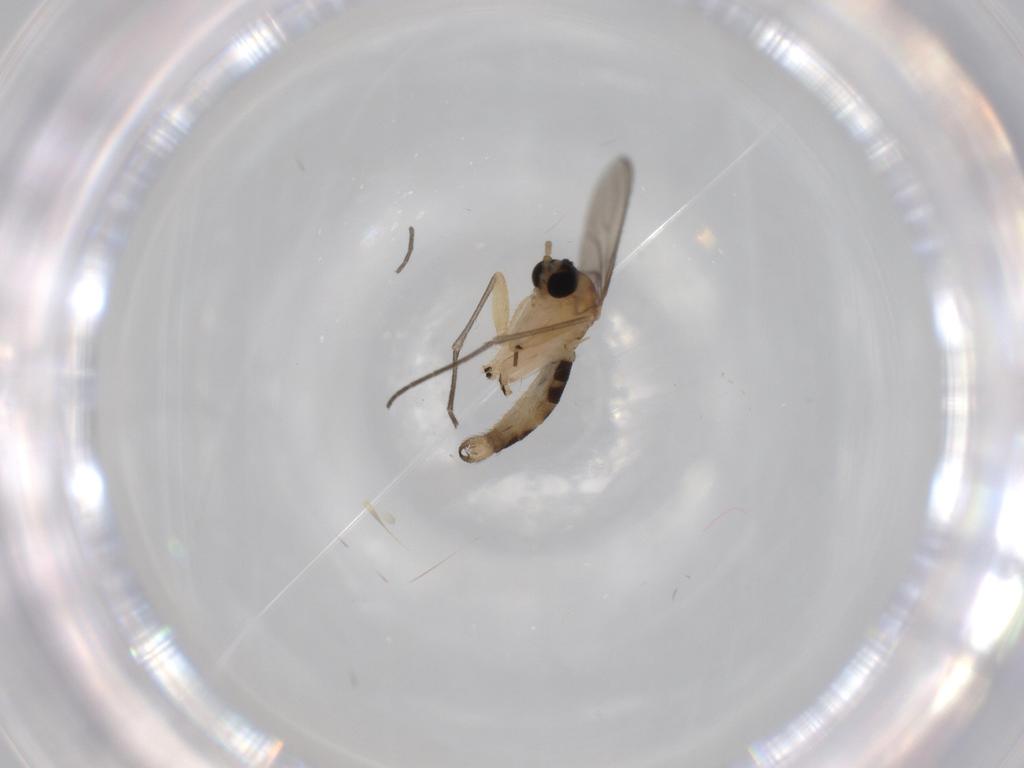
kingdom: Animalia
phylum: Arthropoda
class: Insecta
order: Diptera
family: Sciaridae
